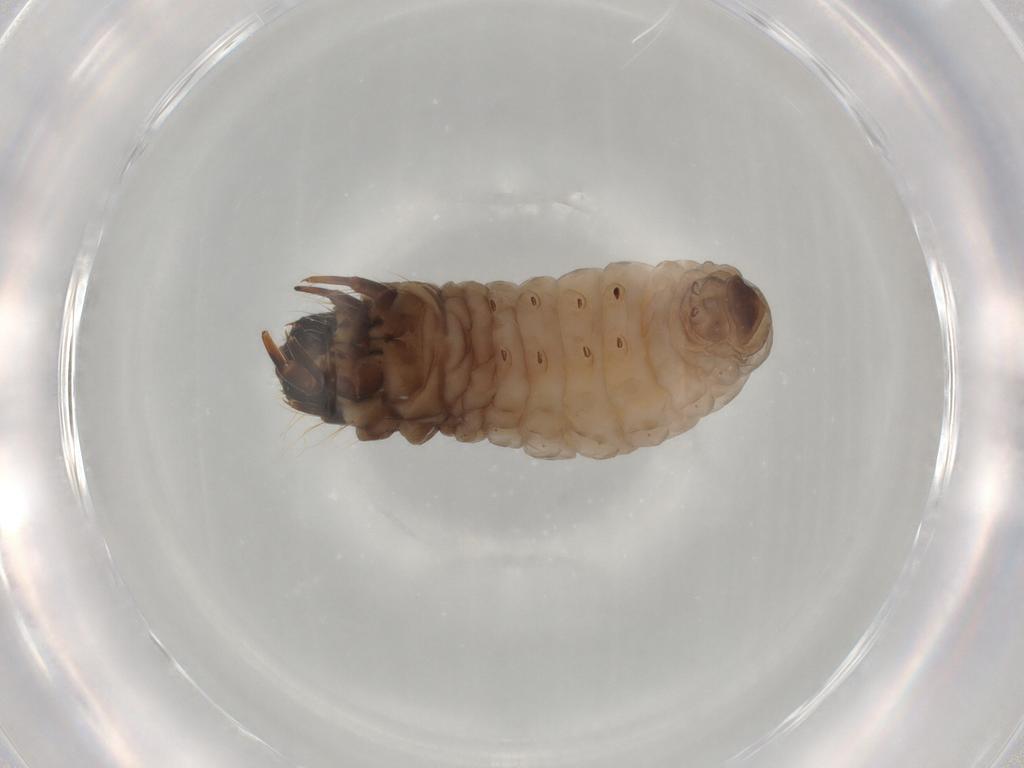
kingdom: Animalia
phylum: Arthropoda
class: Insecta
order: Lepidoptera
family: Psychidae
